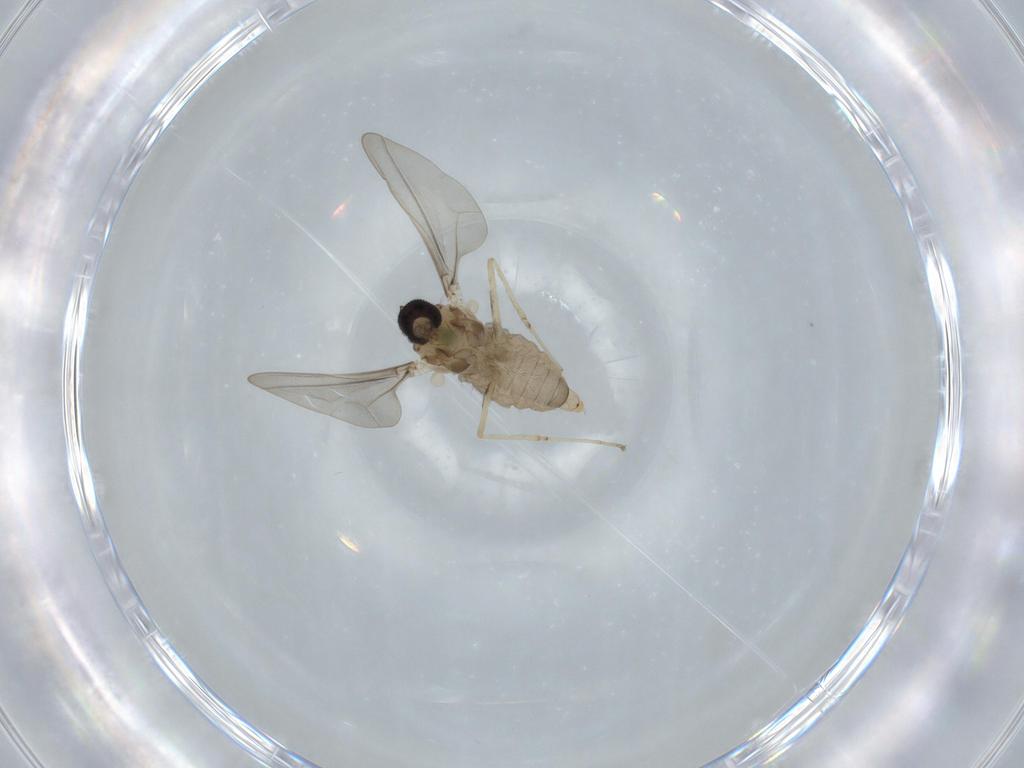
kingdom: Animalia
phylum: Arthropoda
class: Insecta
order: Diptera
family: Cecidomyiidae
